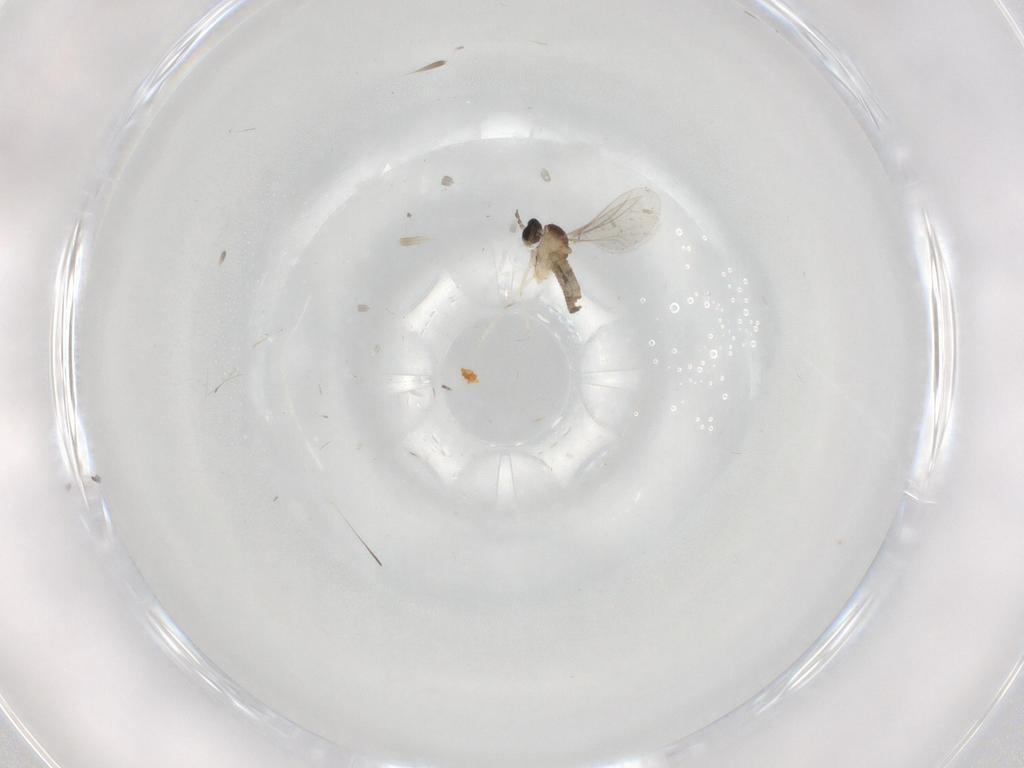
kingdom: Animalia
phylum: Arthropoda
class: Insecta
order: Diptera
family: Cecidomyiidae
